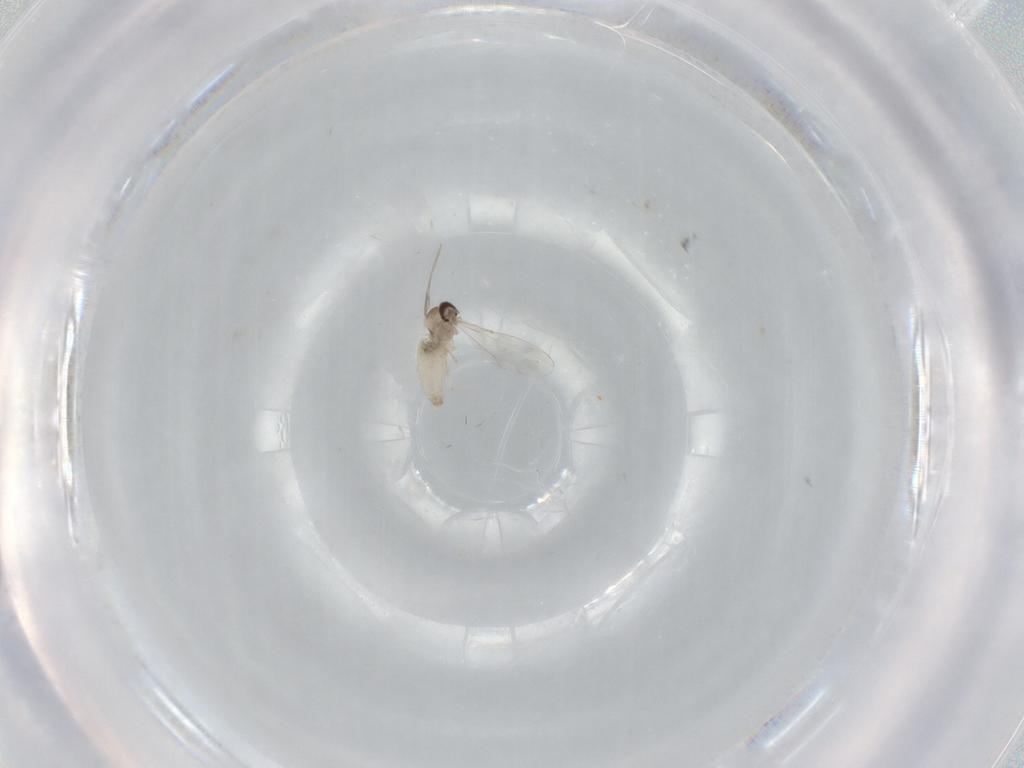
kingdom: Animalia
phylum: Arthropoda
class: Insecta
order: Diptera
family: Cecidomyiidae
